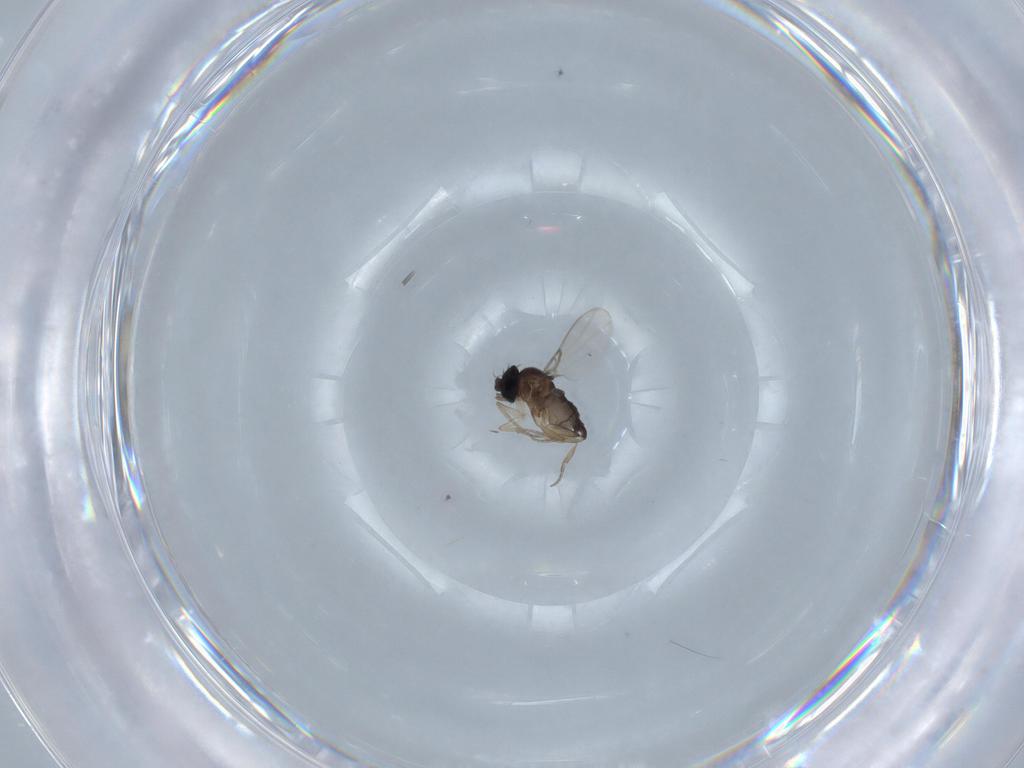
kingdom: Animalia
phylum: Arthropoda
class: Insecta
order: Diptera
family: Phoridae
